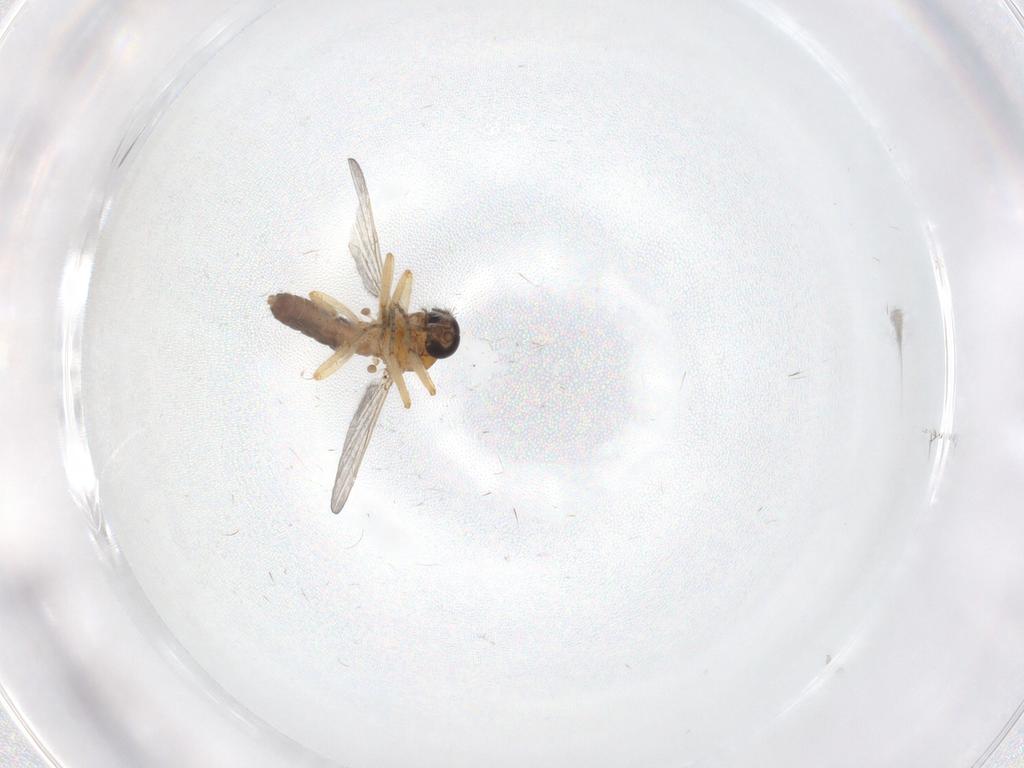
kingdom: Animalia
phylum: Arthropoda
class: Insecta
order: Diptera
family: Ceratopogonidae
